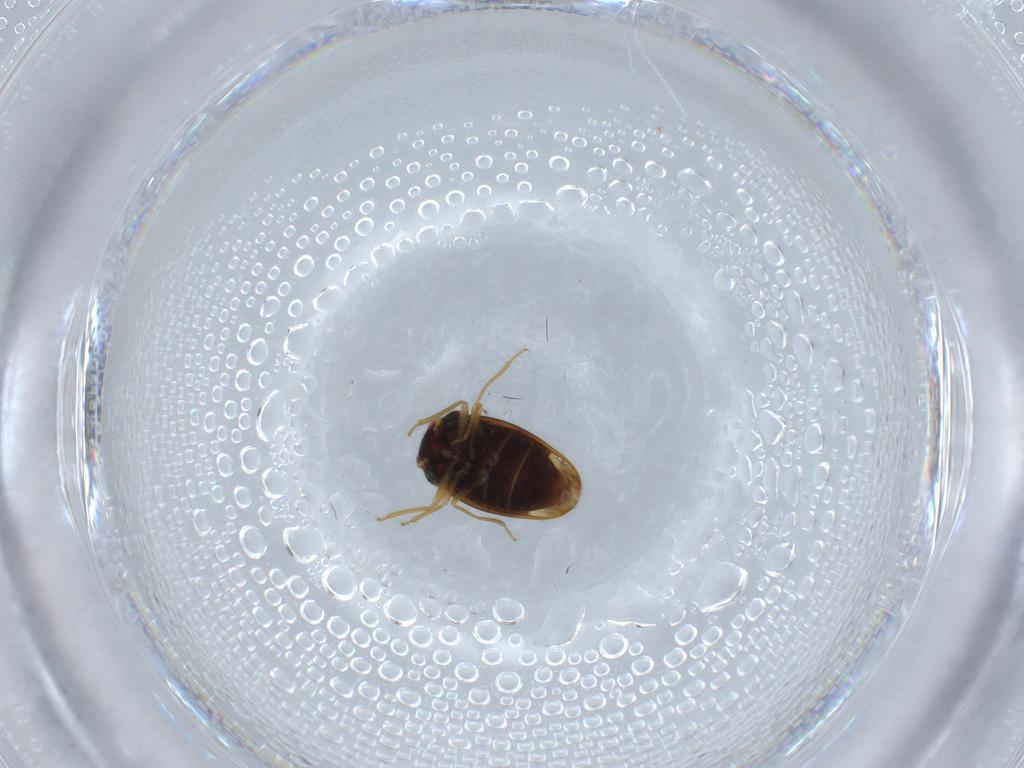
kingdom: Animalia
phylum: Arthropoda
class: Insecta
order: Hemiptera
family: Schizopteridae
